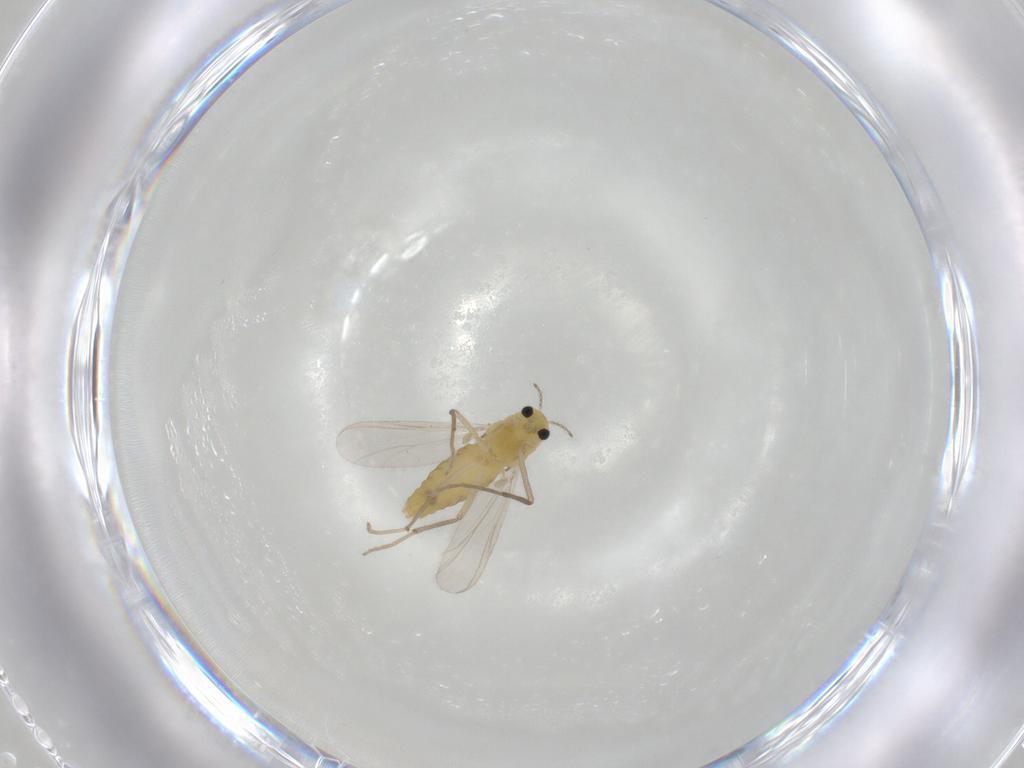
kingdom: Animalia
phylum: Arthropoda
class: Insecta
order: Diptera
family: Chironomidae
